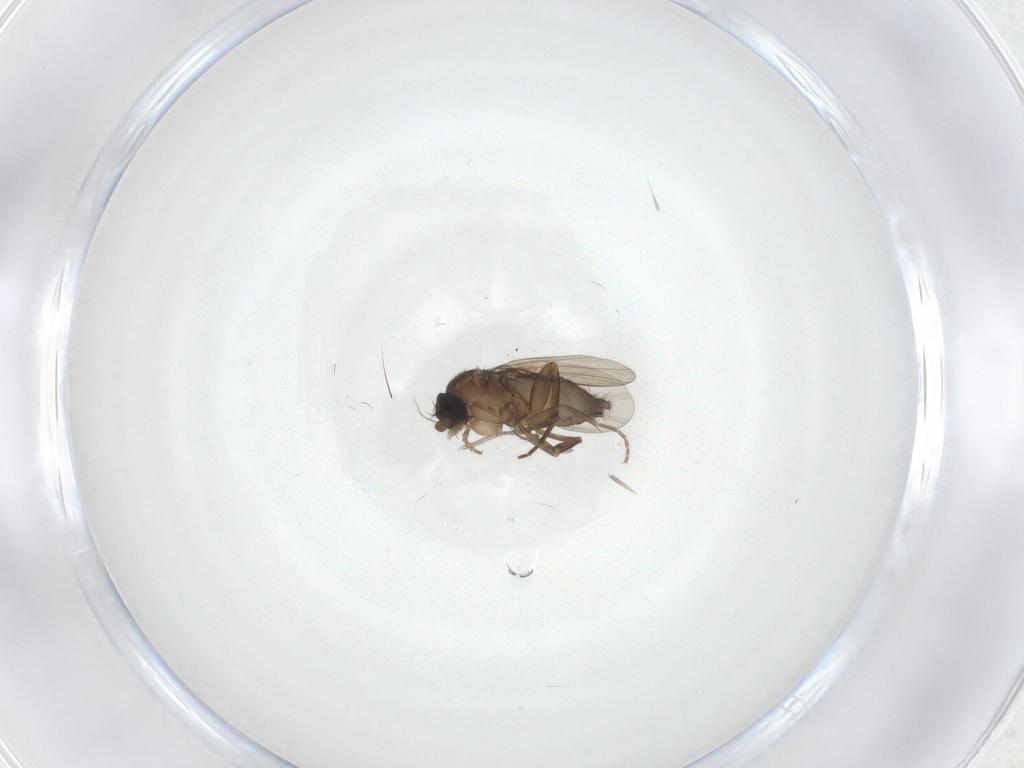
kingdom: Animalia
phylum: Arthropoda
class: Insecta
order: Diptera
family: Phoridae
